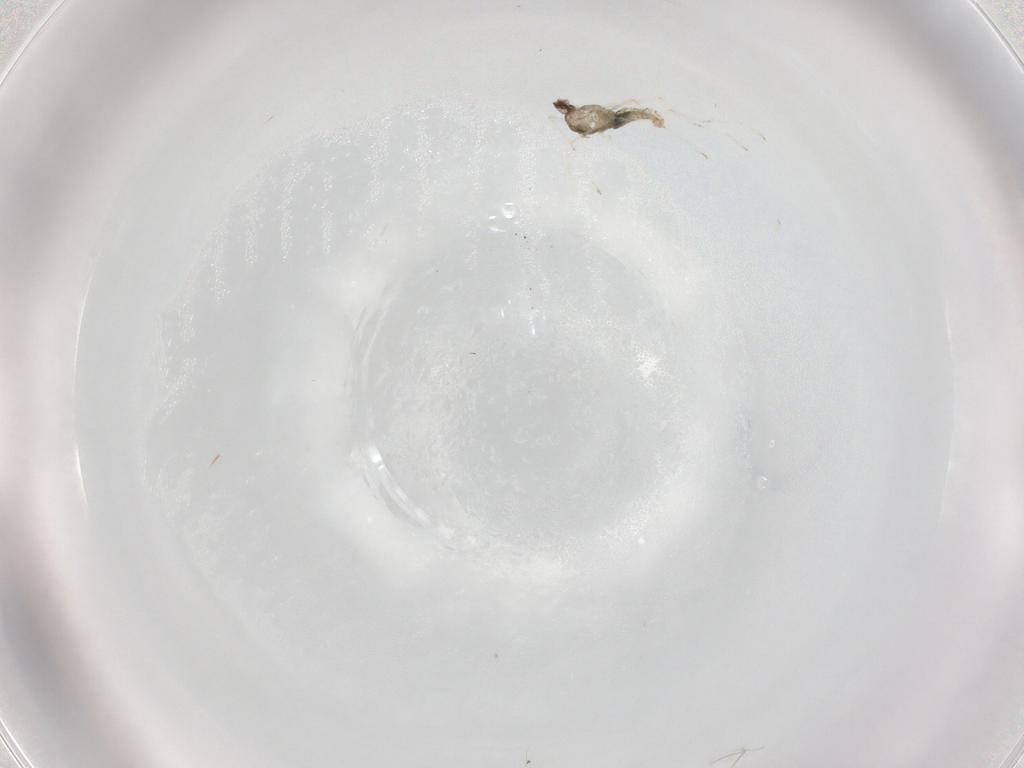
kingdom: Animalia
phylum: Arthropoda
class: Insecta
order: Diptera
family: Cecidomyiidae
